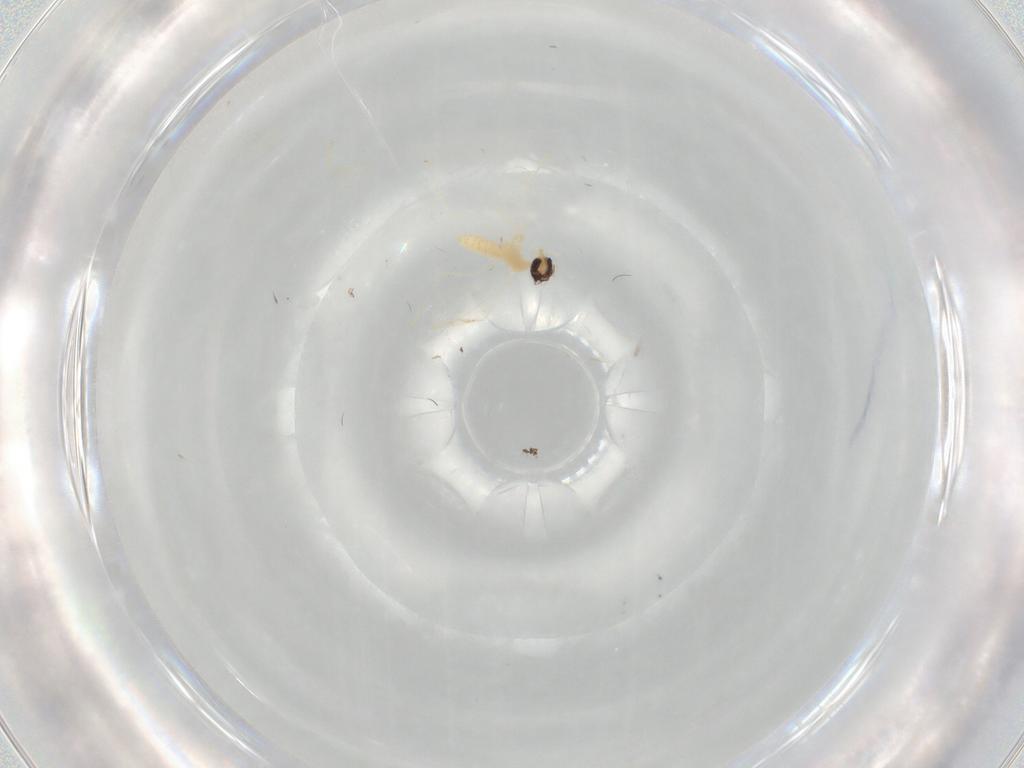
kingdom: Animalia
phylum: Arthropoda
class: Insecta
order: Diptera
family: Cecidomyiidae
